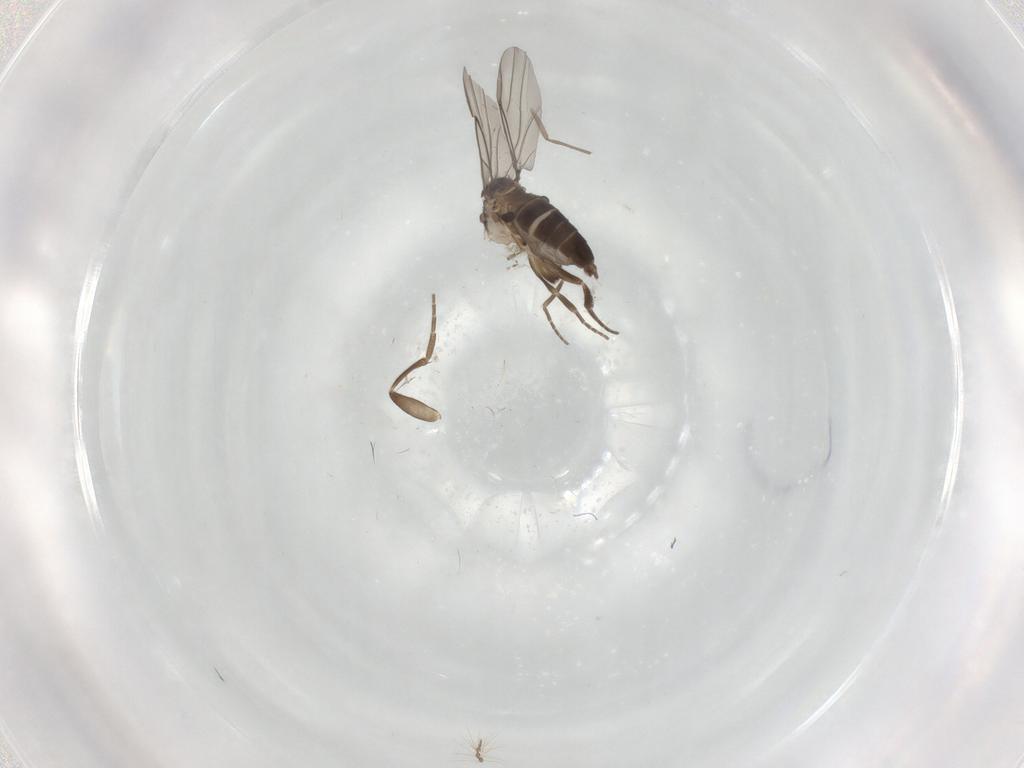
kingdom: Animalia
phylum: Arthropoda
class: Insecta
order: Diptera
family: Phoridae
